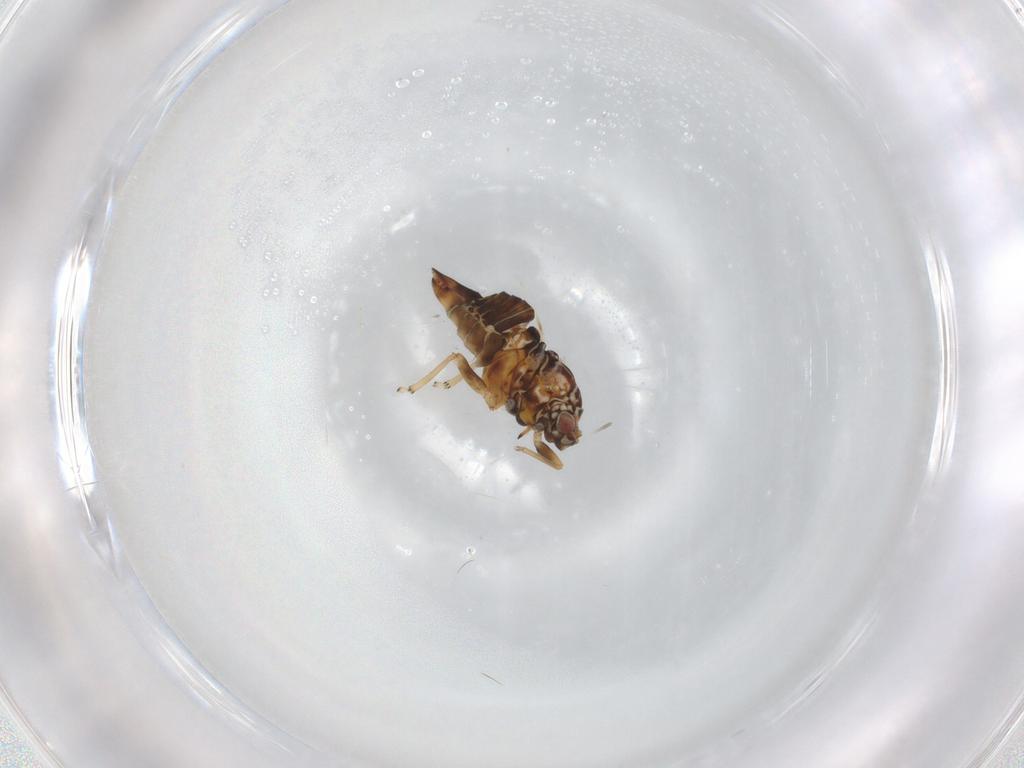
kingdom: Animalia
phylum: Arthropoda
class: Insecta
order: Hemiptera
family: Psyllidae
